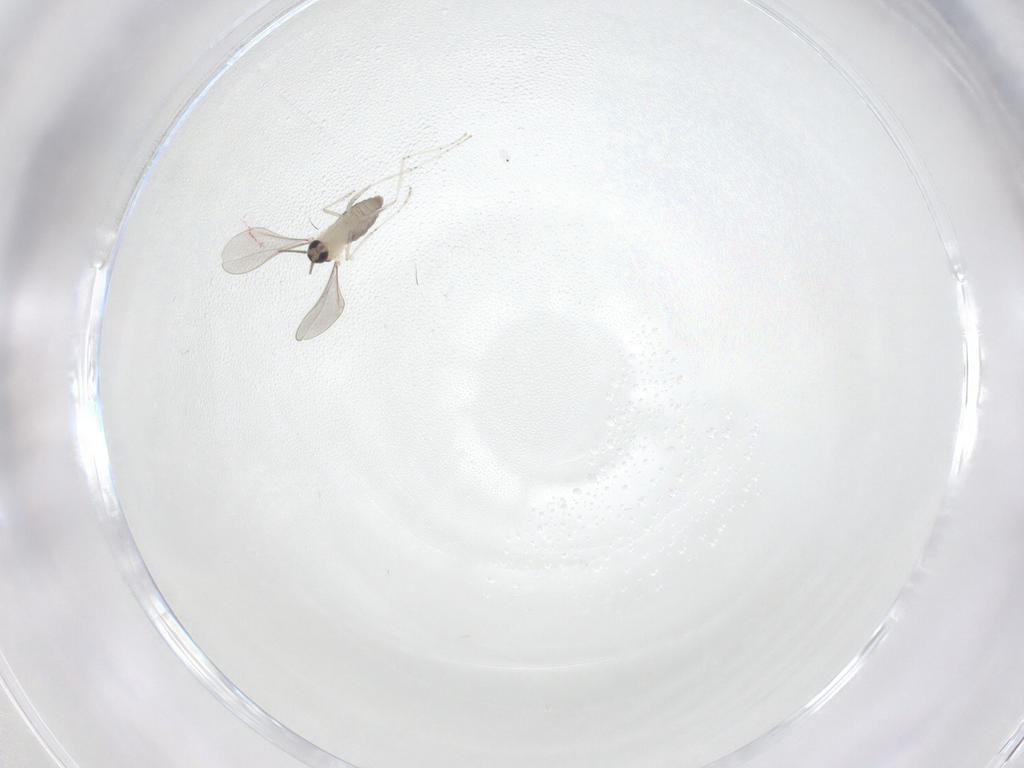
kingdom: Animalia
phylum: Arthropoda
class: Insecta
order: Diptera
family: Cecidomyiidae
